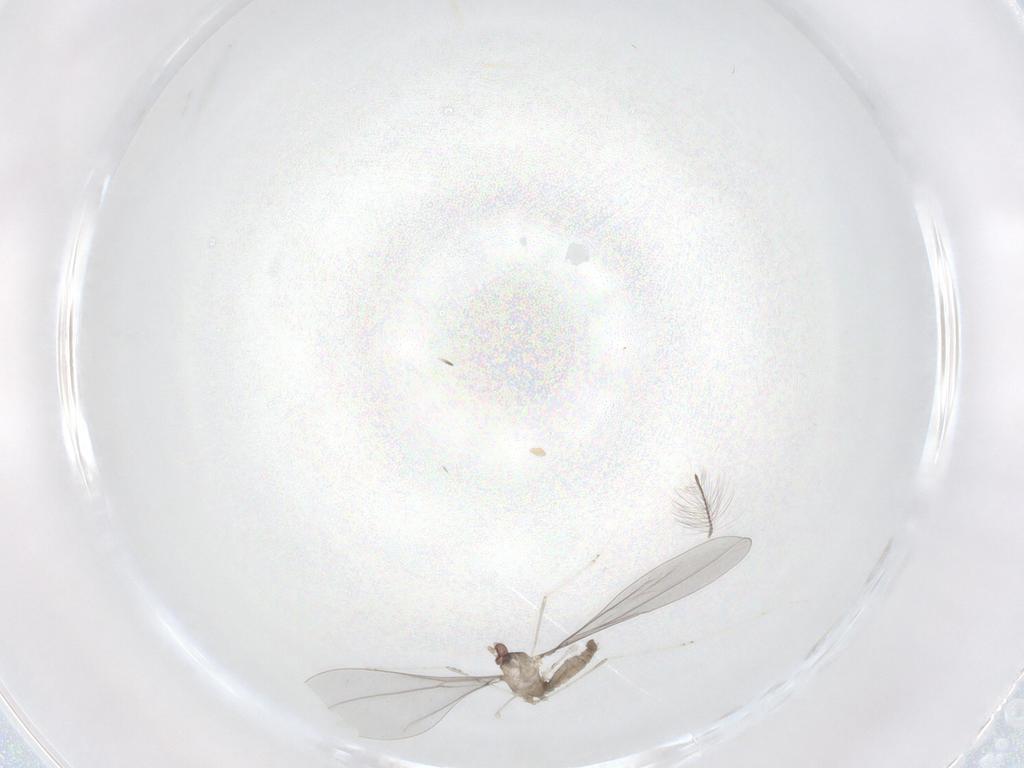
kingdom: Animalia
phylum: Arthropoda
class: Insecta
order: Diptera
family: Cecidomyiidae
